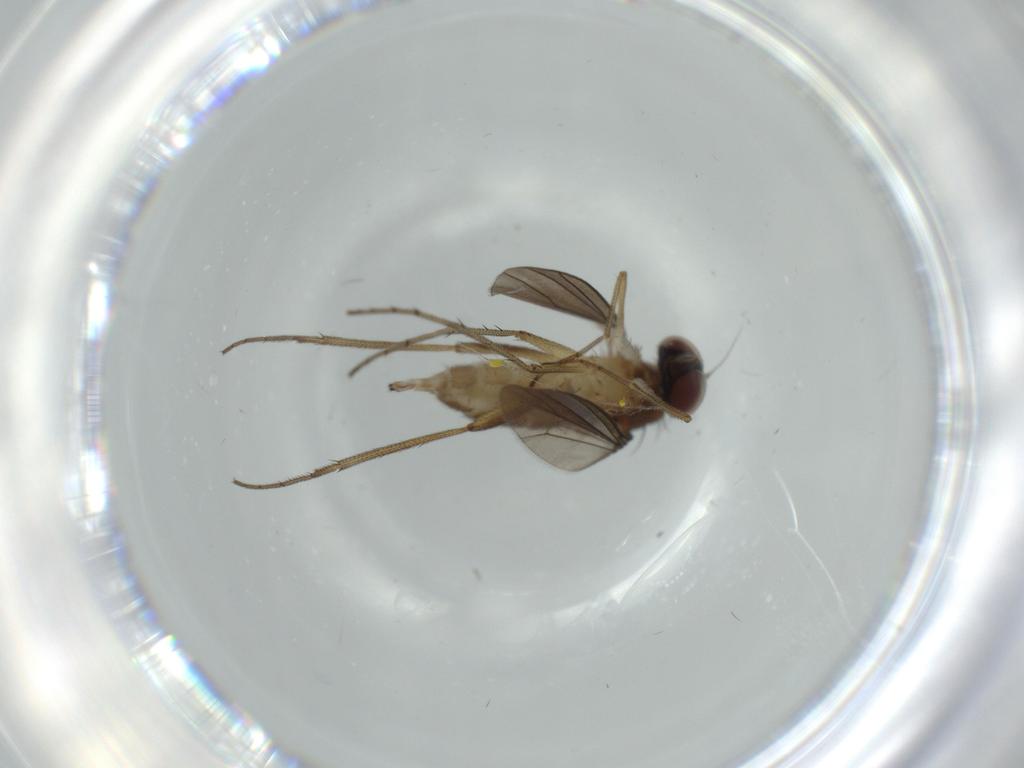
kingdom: Animalia
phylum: Arthropoda
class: Insecta
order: Diptera
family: Dolichopodidae
